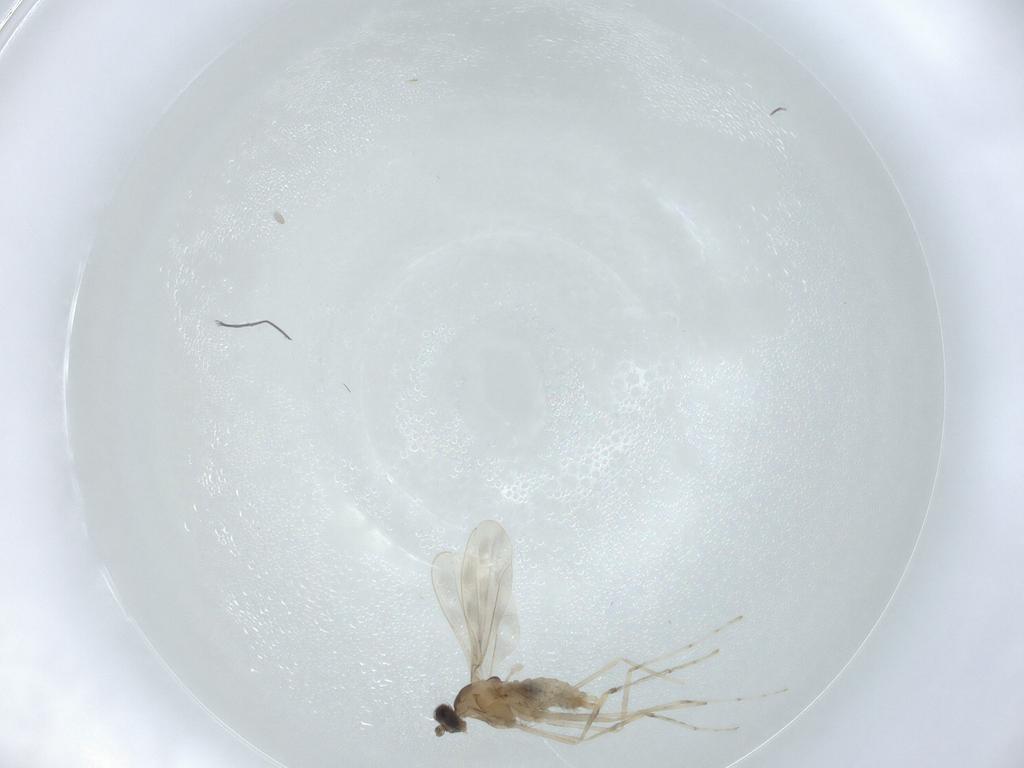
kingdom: Animalia
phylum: Arthropoda
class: Insecta
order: Diptera
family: Cecidomyiidae
